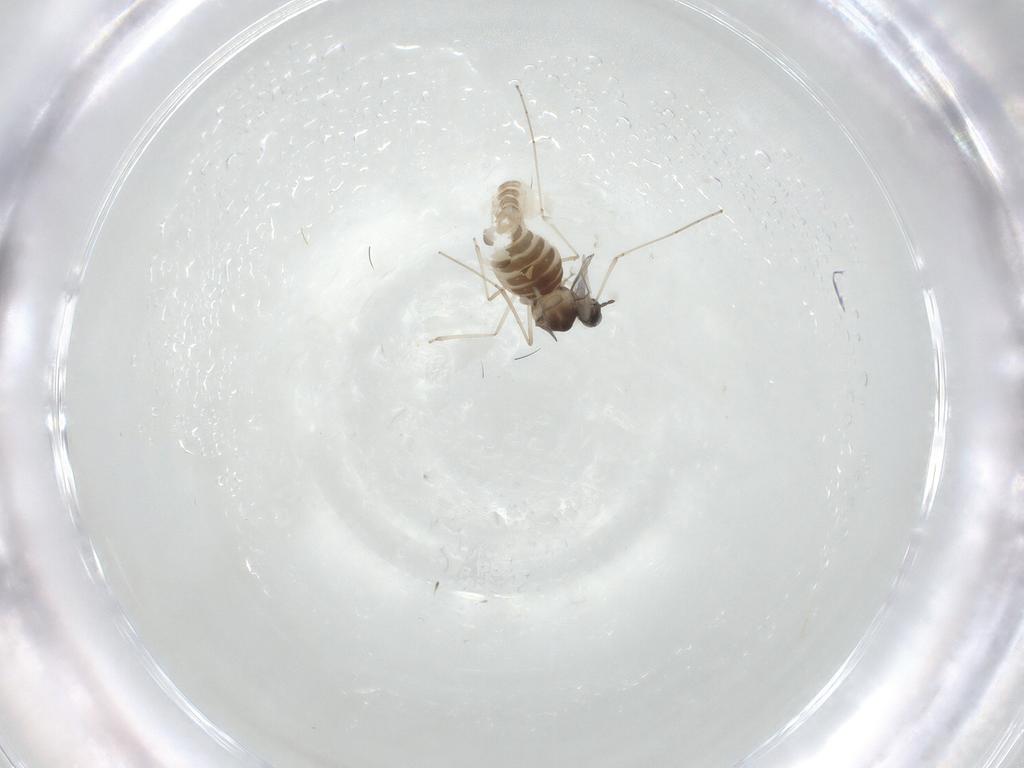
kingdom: Animalia
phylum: Arthropoda
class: Insecta
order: Diptera
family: Cecidomyiidae
